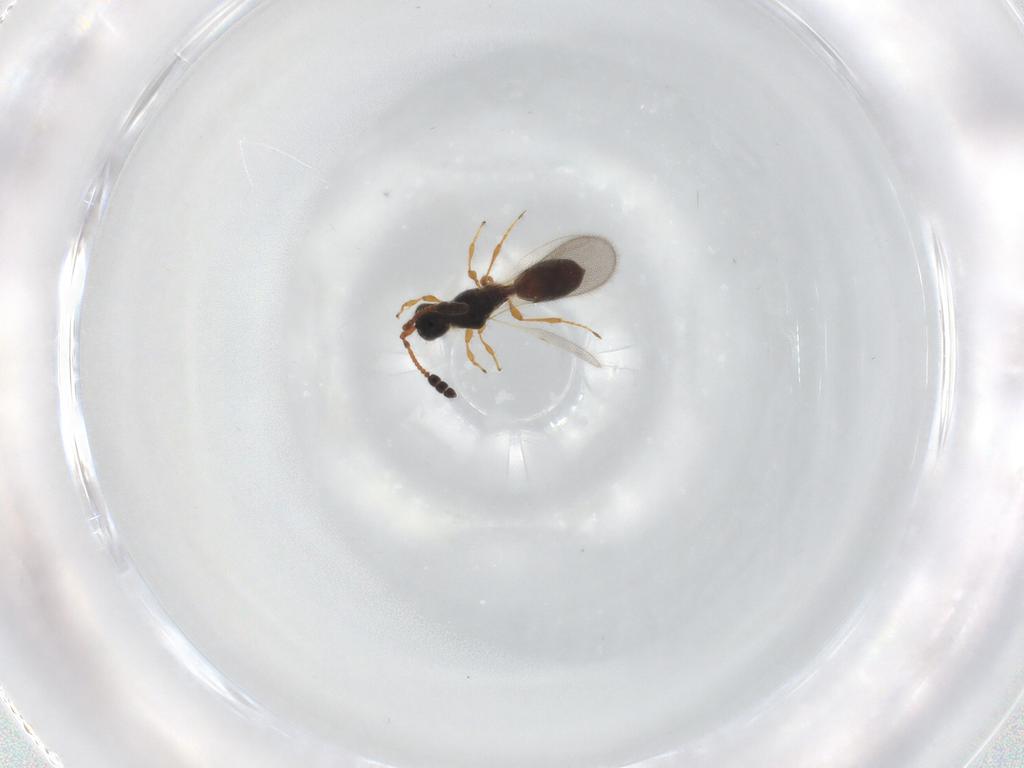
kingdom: Animalia
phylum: Arthropoda
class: Insecta
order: Hymenoptera
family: Diapriidae
